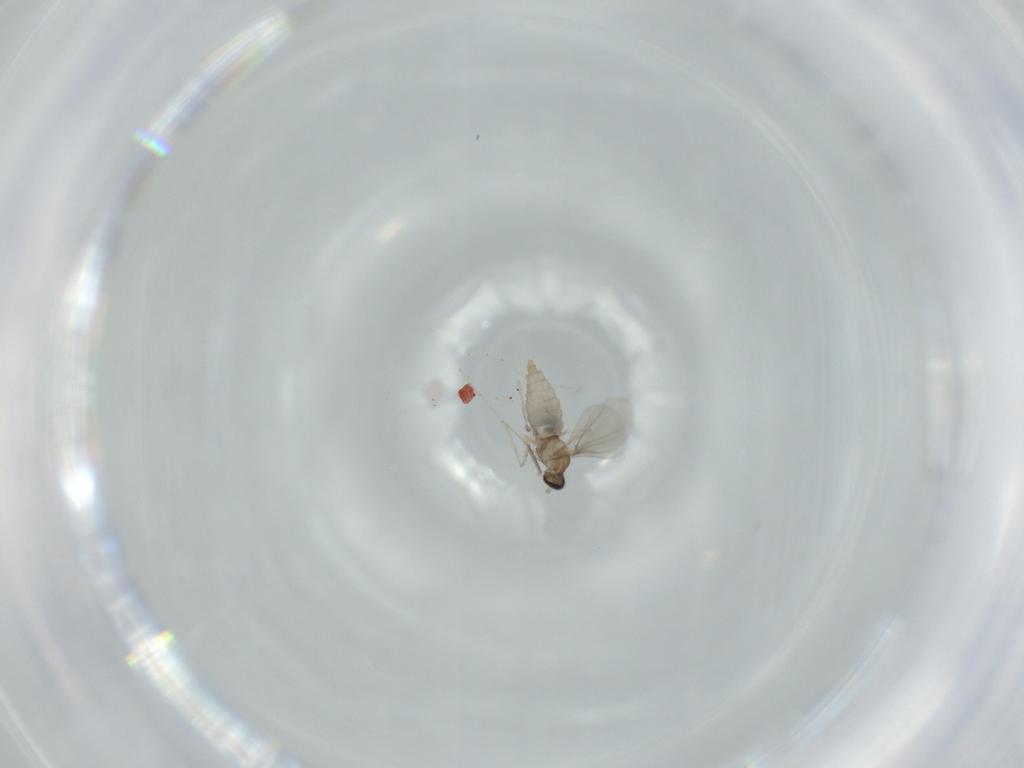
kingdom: Animalia
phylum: Arthropoda
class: Insecta
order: Diptera
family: Cecidomyiidae
